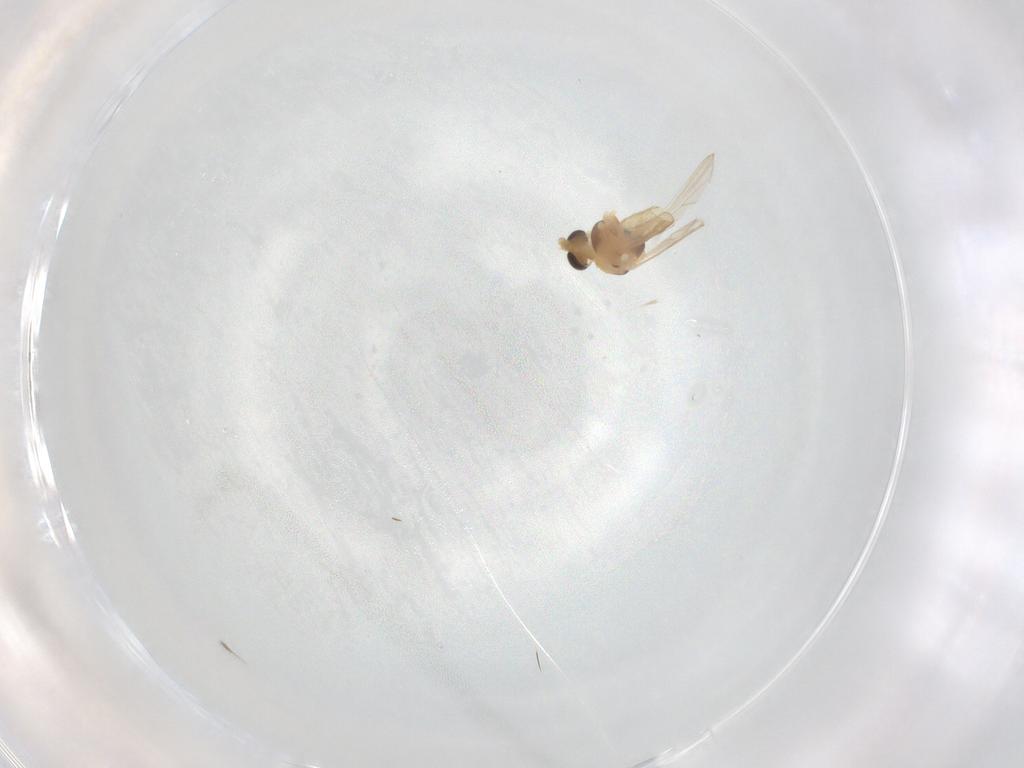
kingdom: Animalia
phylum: Arthropoda
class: Insecta
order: Diptera
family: Chironomidae
